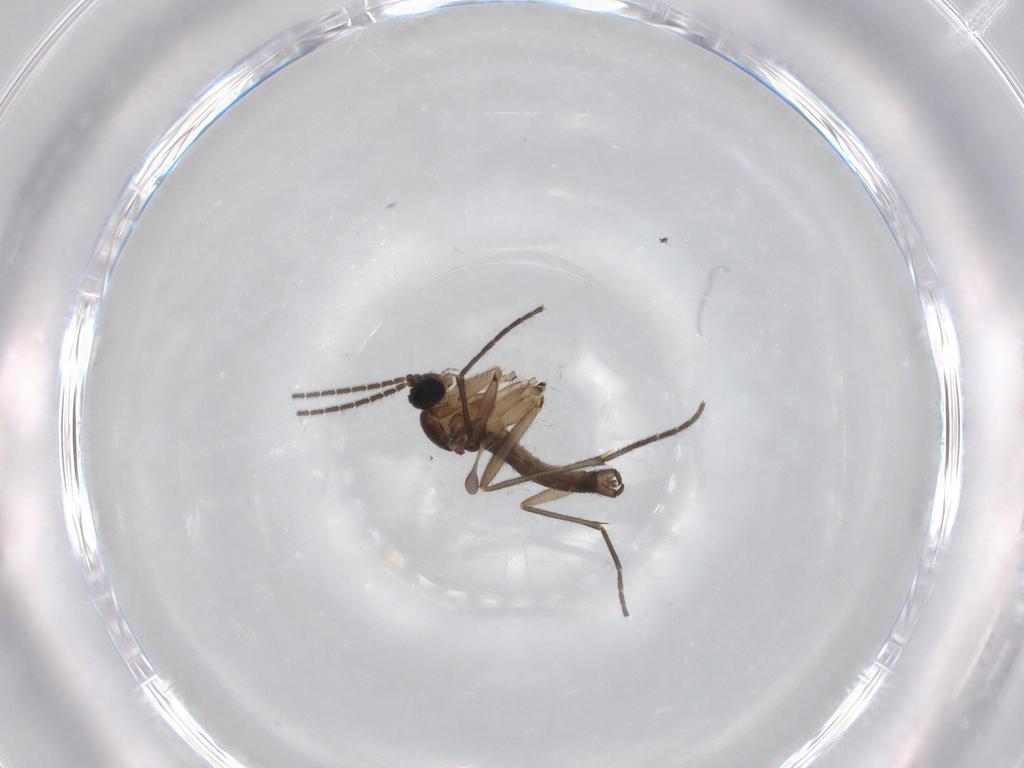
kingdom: Animalia
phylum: Arthropoda
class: Insecta
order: Diptera
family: Sciaridae
